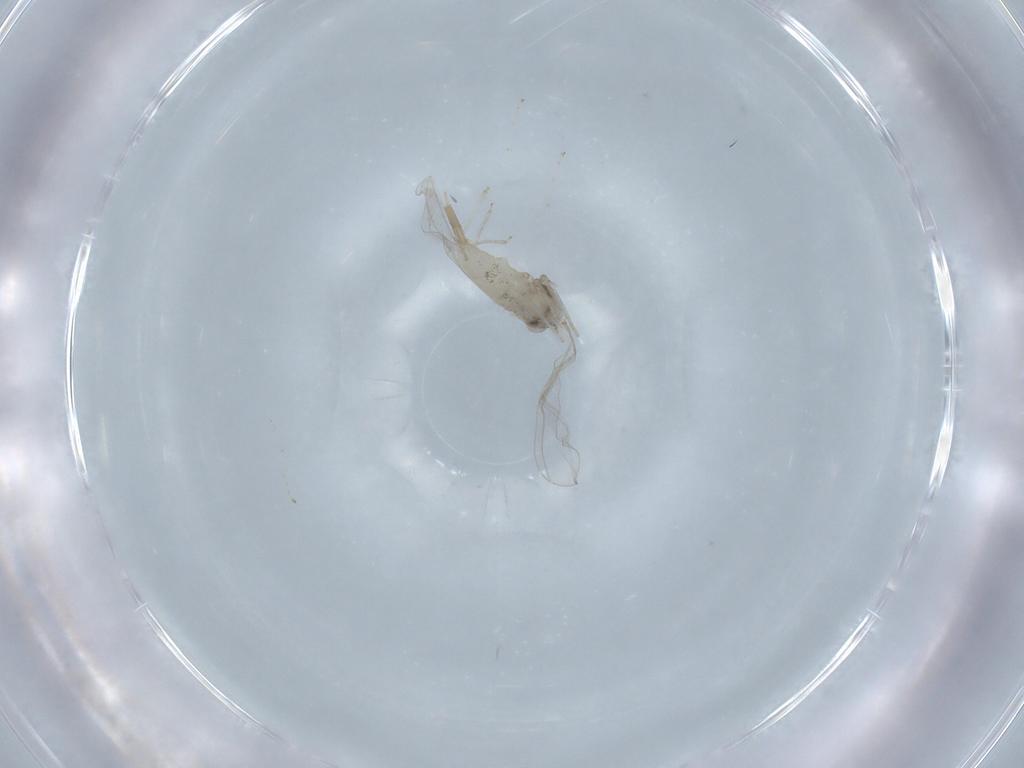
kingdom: Animalia
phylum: Arthropoda
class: Insecta
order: Diptera
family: Cecidomyiidae
